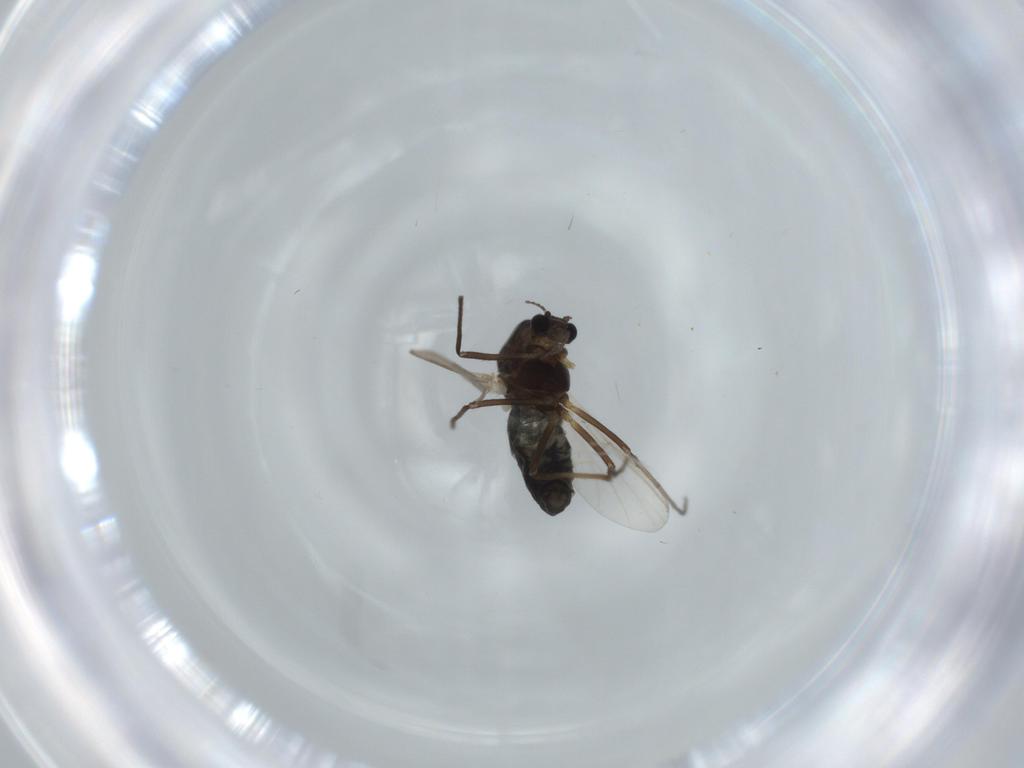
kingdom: Animalia
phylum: Arthropoda
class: Insecta
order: Diptera
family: Chironomidae
